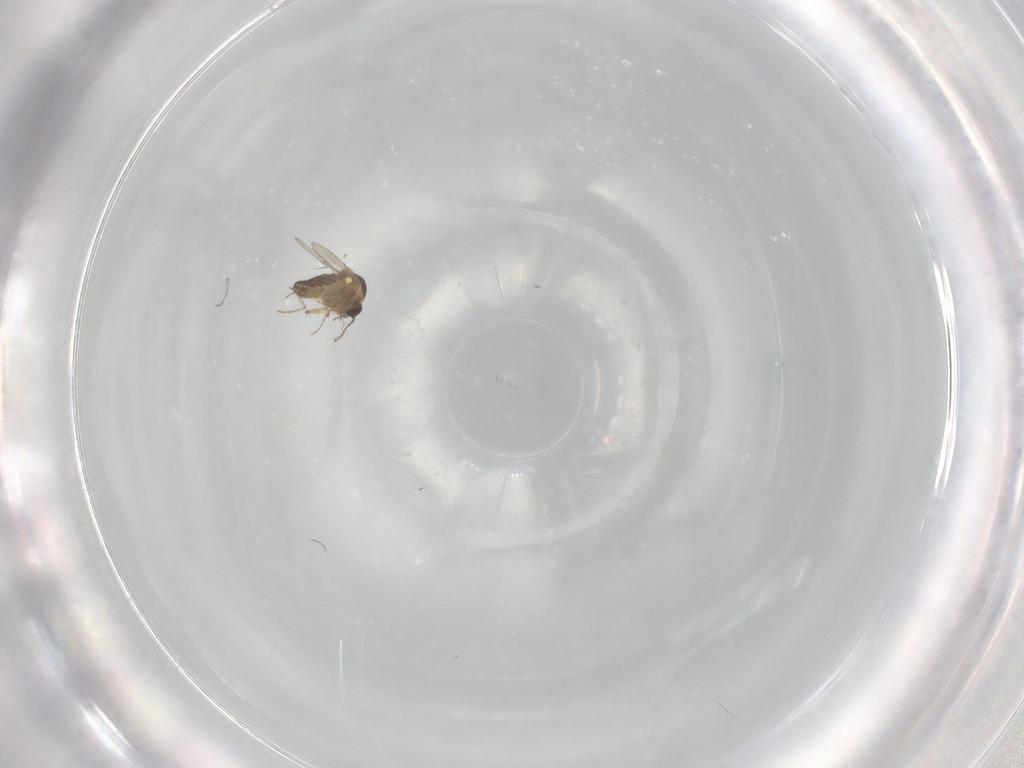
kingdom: Animalia
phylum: Arthropoda
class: Insecta
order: Diptera
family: Ceratopogonidae
